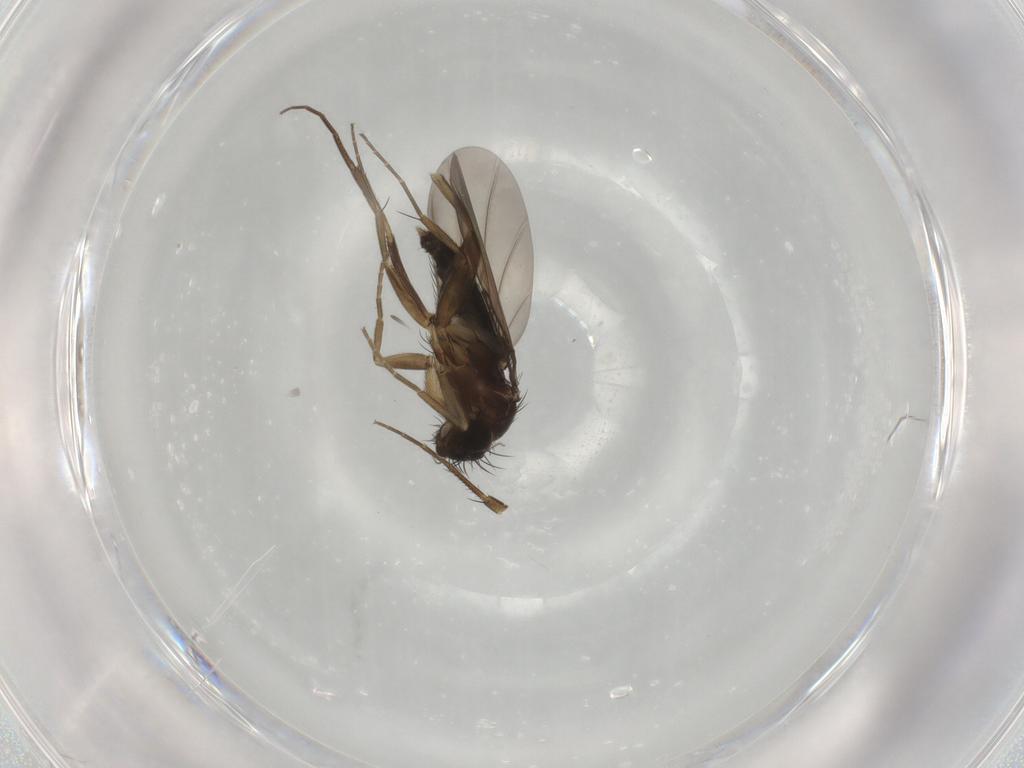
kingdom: Animalia
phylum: Arthropoda
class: Insecta
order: Diptera
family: Phoridae
